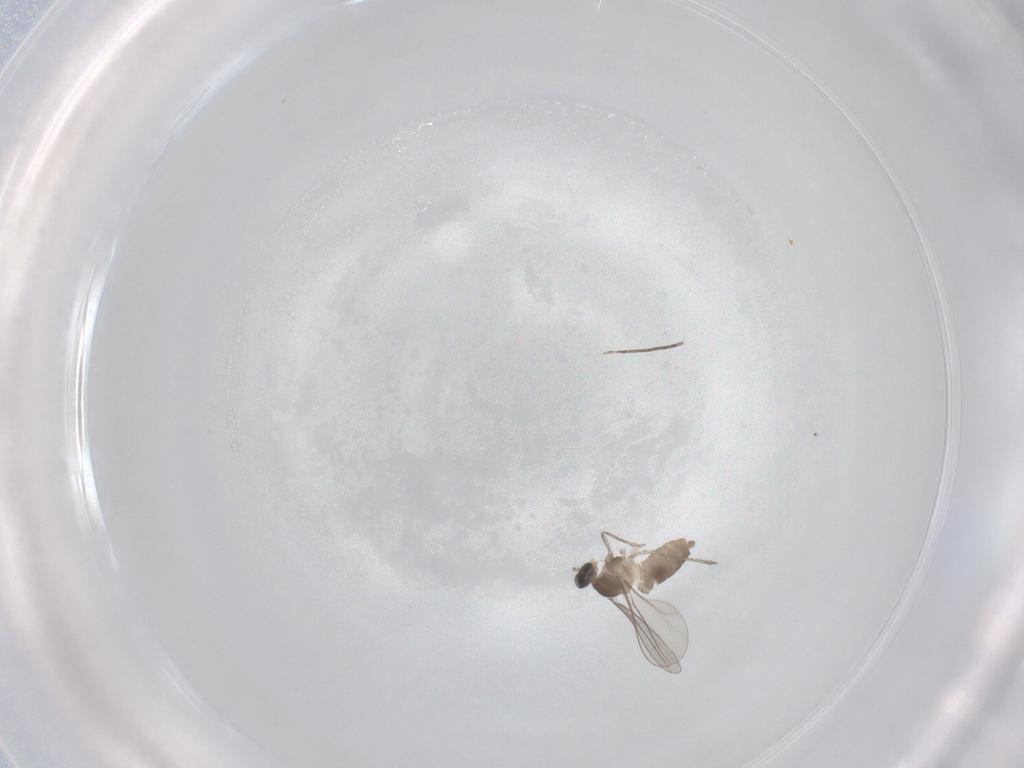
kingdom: Animalia
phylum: Arthropoda
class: Insecta
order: Diptera
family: Cecidomyiidae
